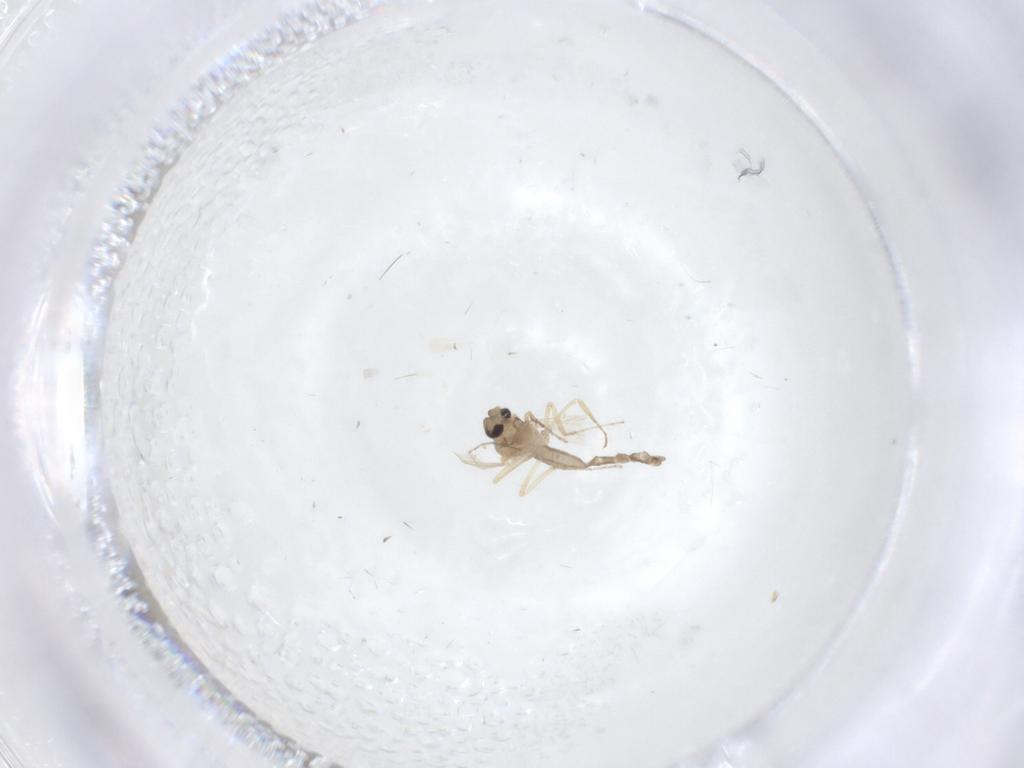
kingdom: Animalia
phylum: Arthropoda
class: Insecta
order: Diptera
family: Ceratopogonidae
